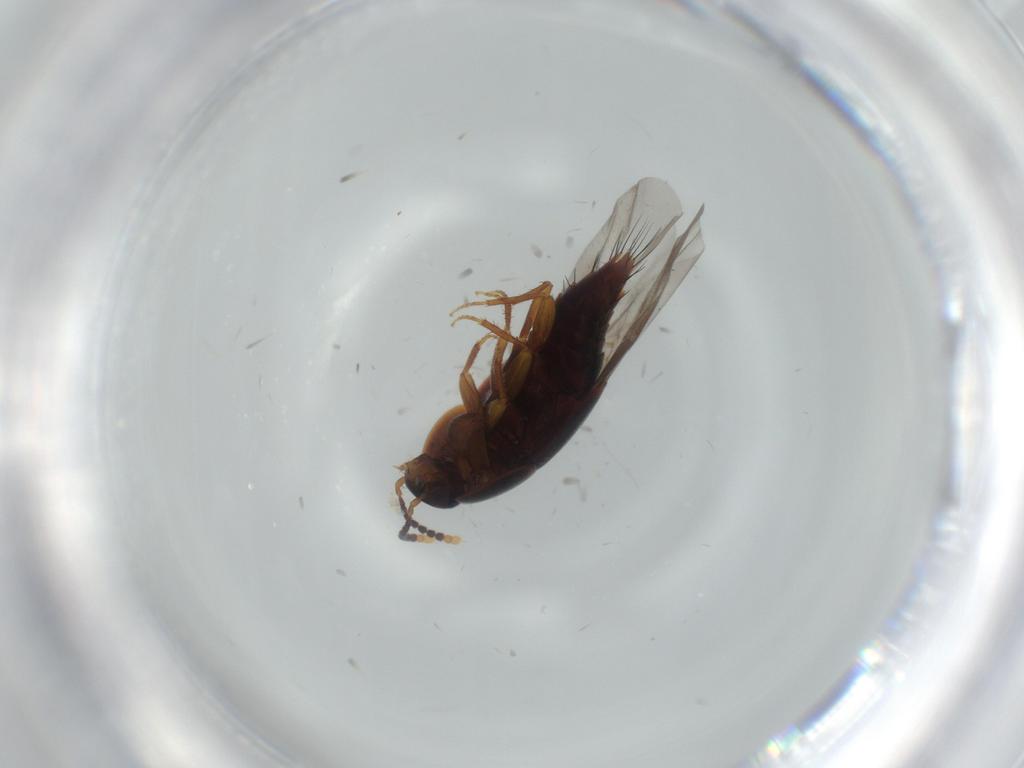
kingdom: Animalia
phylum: Arthropoda
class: Insecta
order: Coleoptera
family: Staphylinidae
